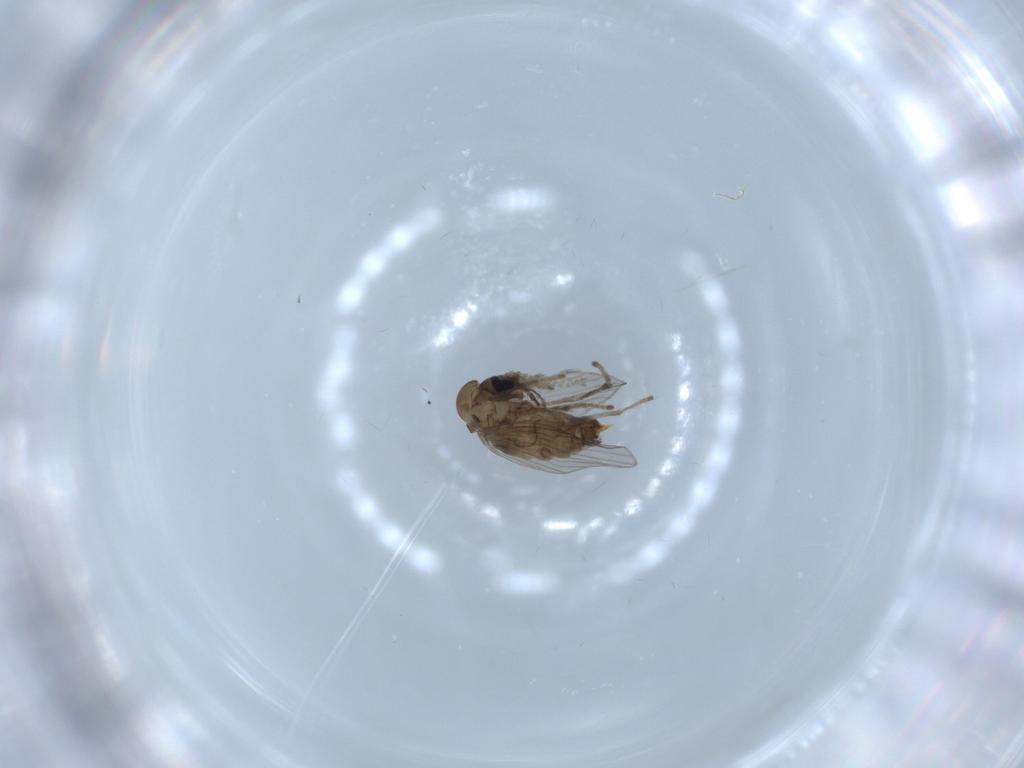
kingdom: Animalia
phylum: Arthropoda
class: Insecta
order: Diptera
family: Psychodidae
